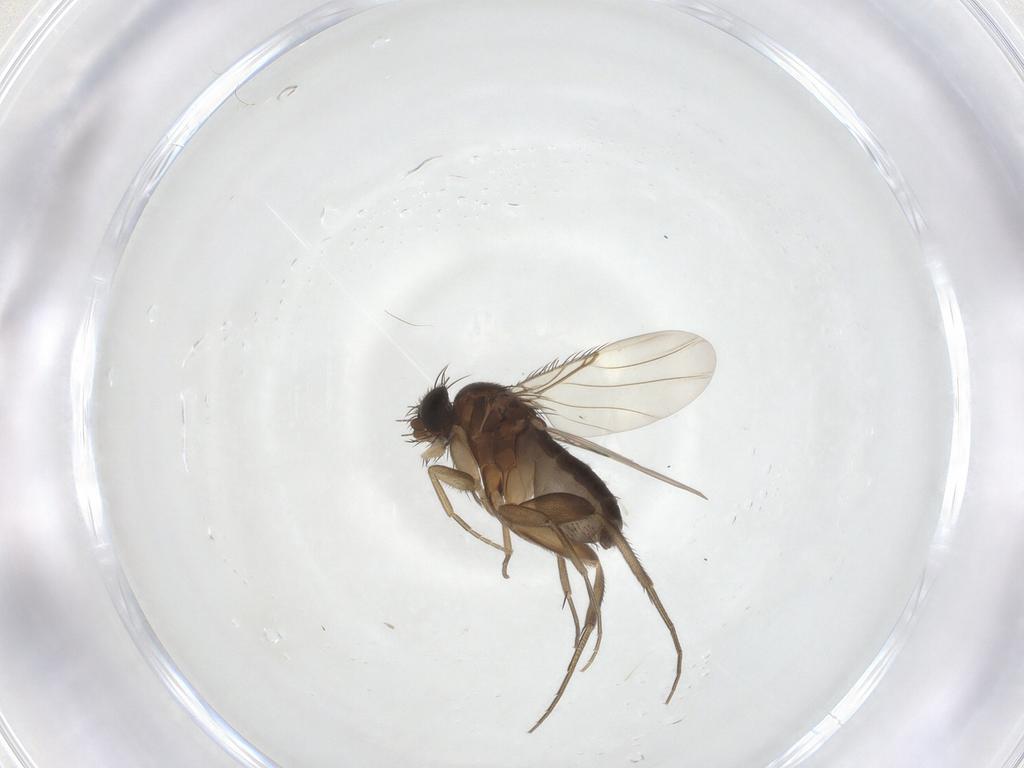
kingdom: Animalia
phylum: Arthropoda
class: Insecta
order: Diptera
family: Phoridae
